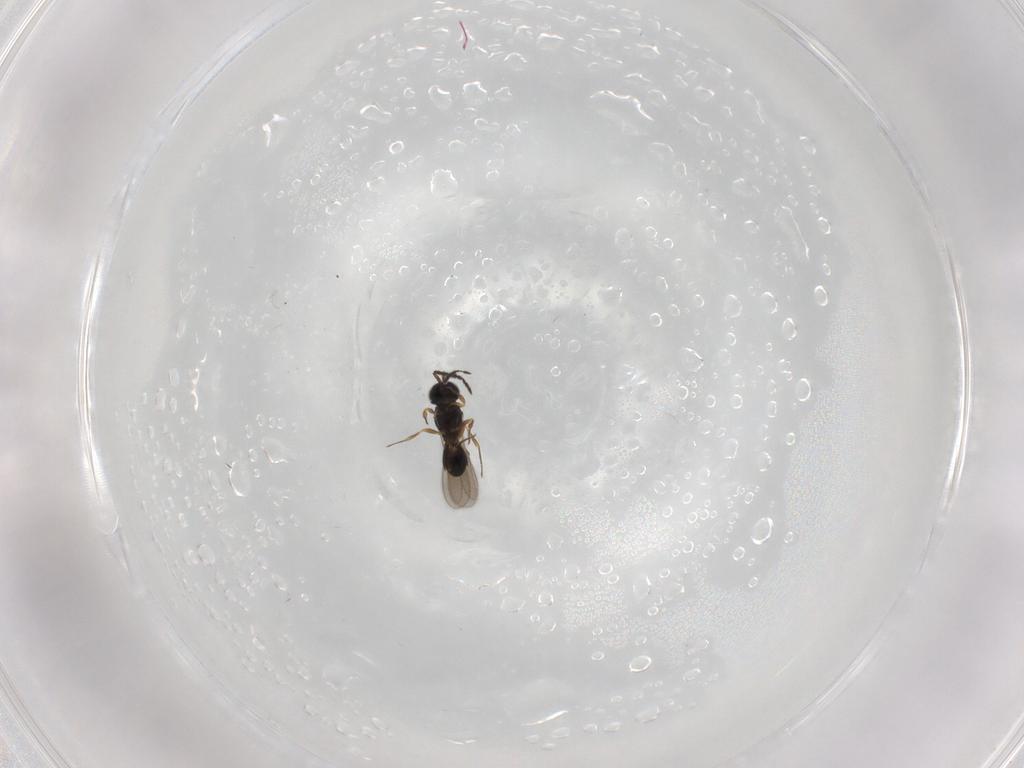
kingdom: Animalia
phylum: Arthropoda
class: Insecta
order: Hymenoptera
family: Scelionidae
